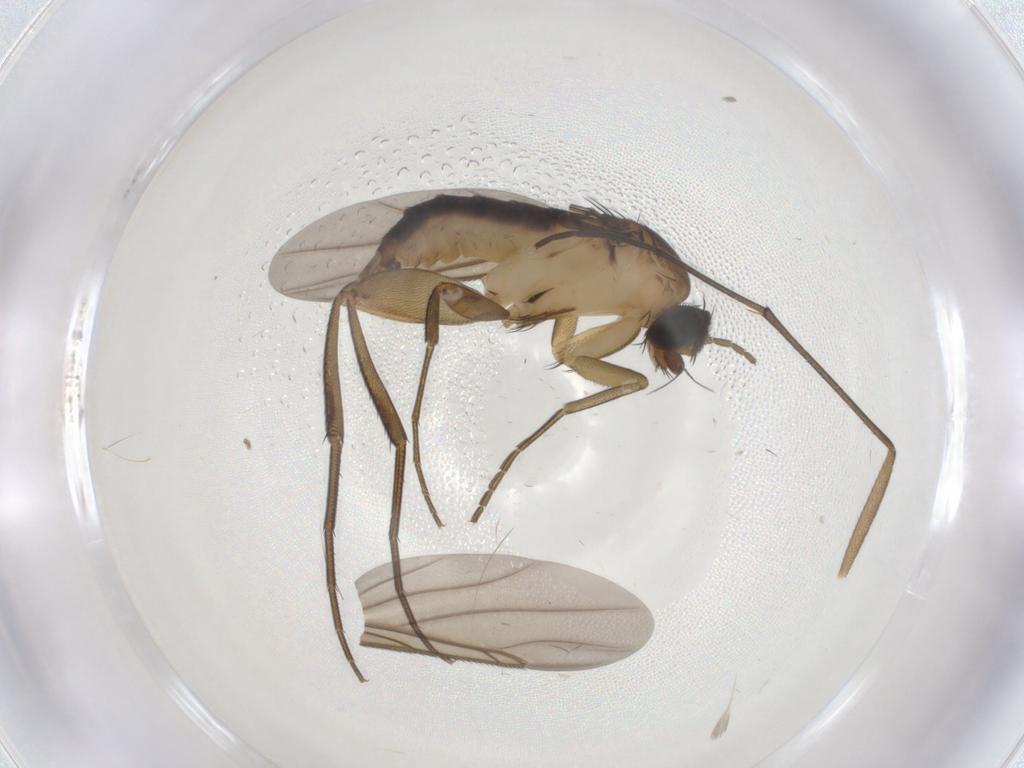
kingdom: Animalia
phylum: Arthropoda
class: Insecta
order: Diptera
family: Phoridae
